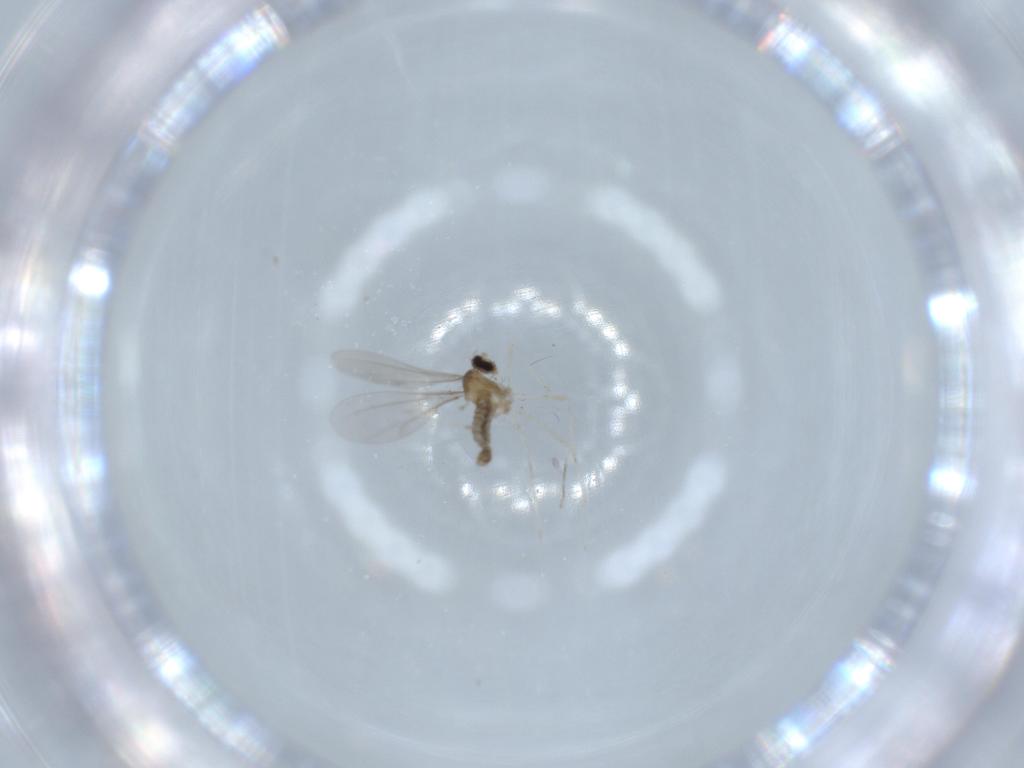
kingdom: Animalia
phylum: Arthropoda
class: Insecta
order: Diptera
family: Cecidomyiidae
